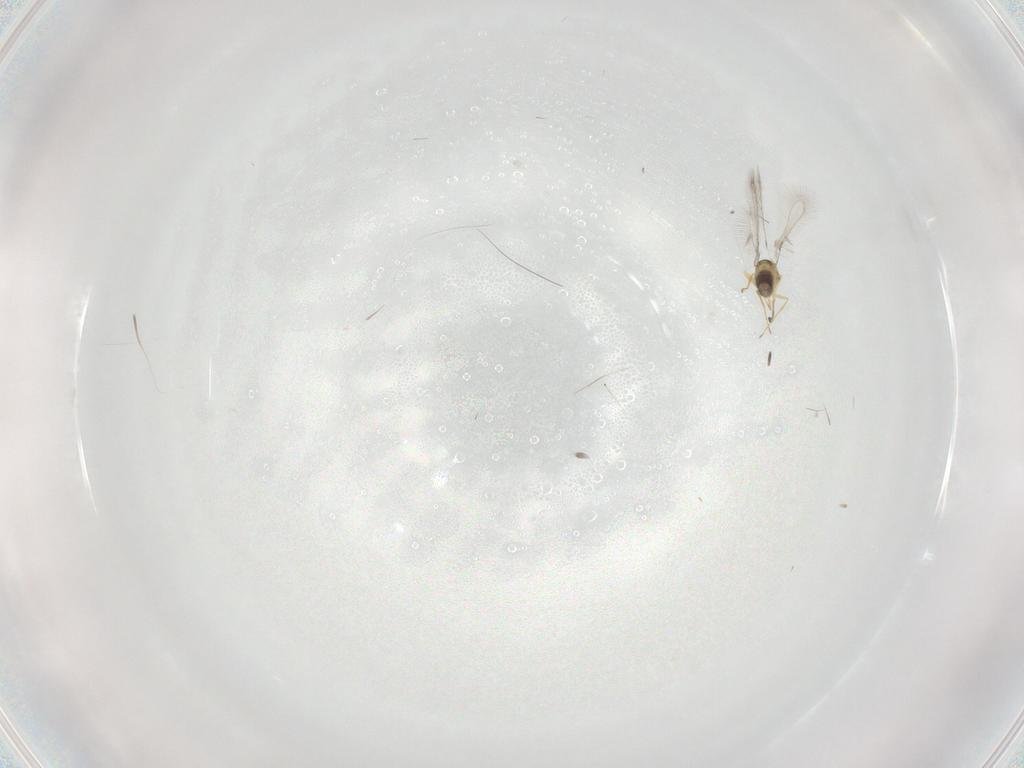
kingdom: Animalia
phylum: Arthropoda
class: Insecta
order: Hymenoptera
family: Mymaridae
